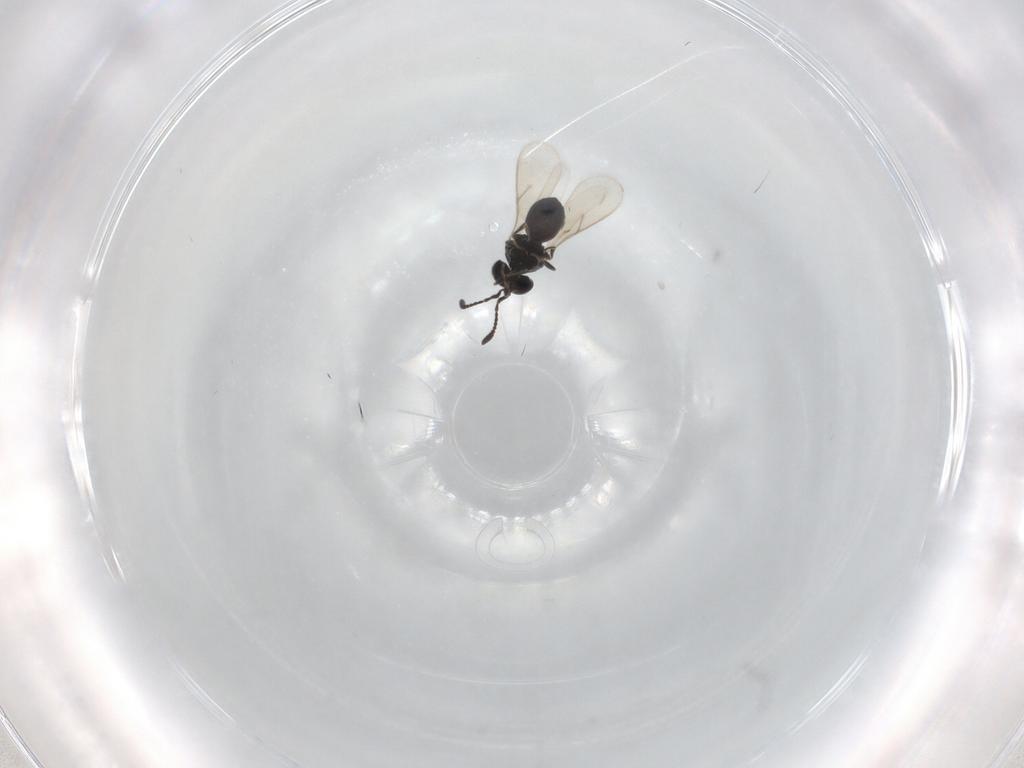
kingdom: Animalia
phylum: Arthropoda
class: Insecta
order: Hymenoptera
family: Scelionidae
